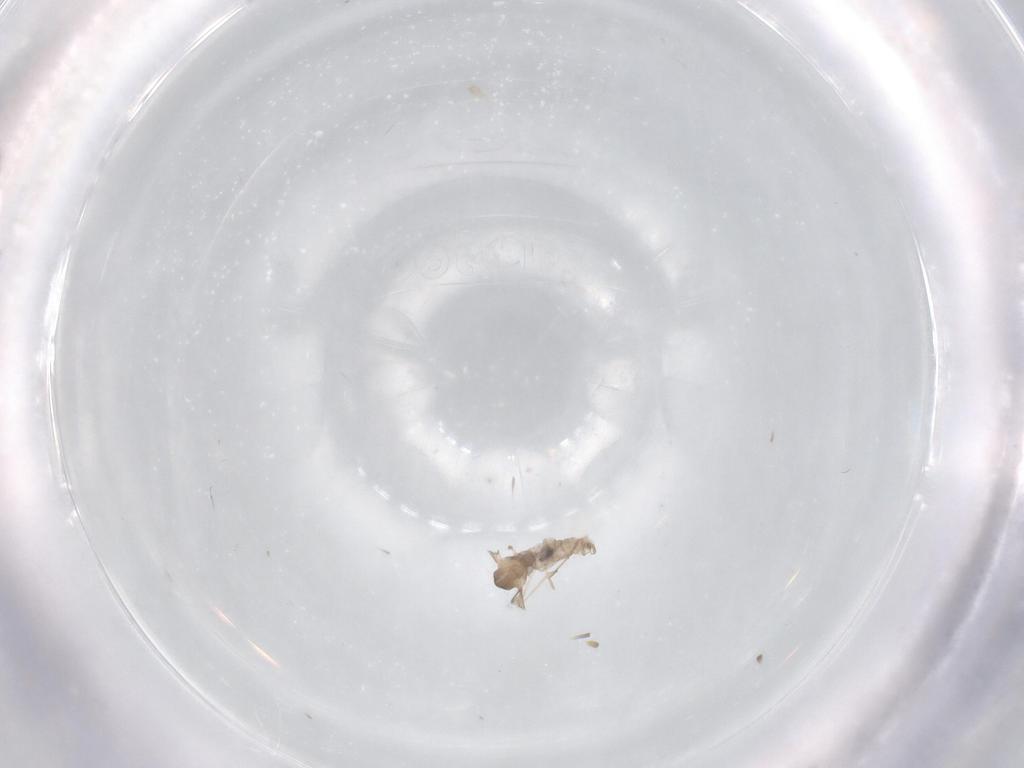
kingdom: Animalia
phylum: Arthropoda
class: Insecta
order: Diptera
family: Cecidomyiidae
